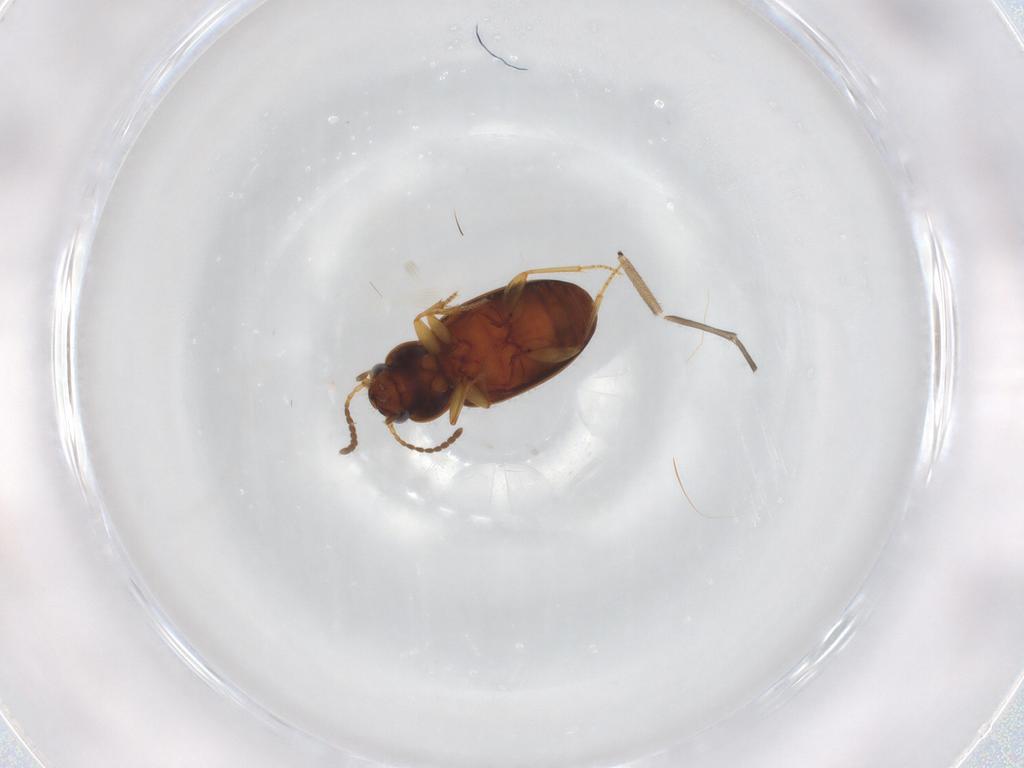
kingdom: Animalia
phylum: Arthropoda
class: Insecta
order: Coleoptera
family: Carabidae
